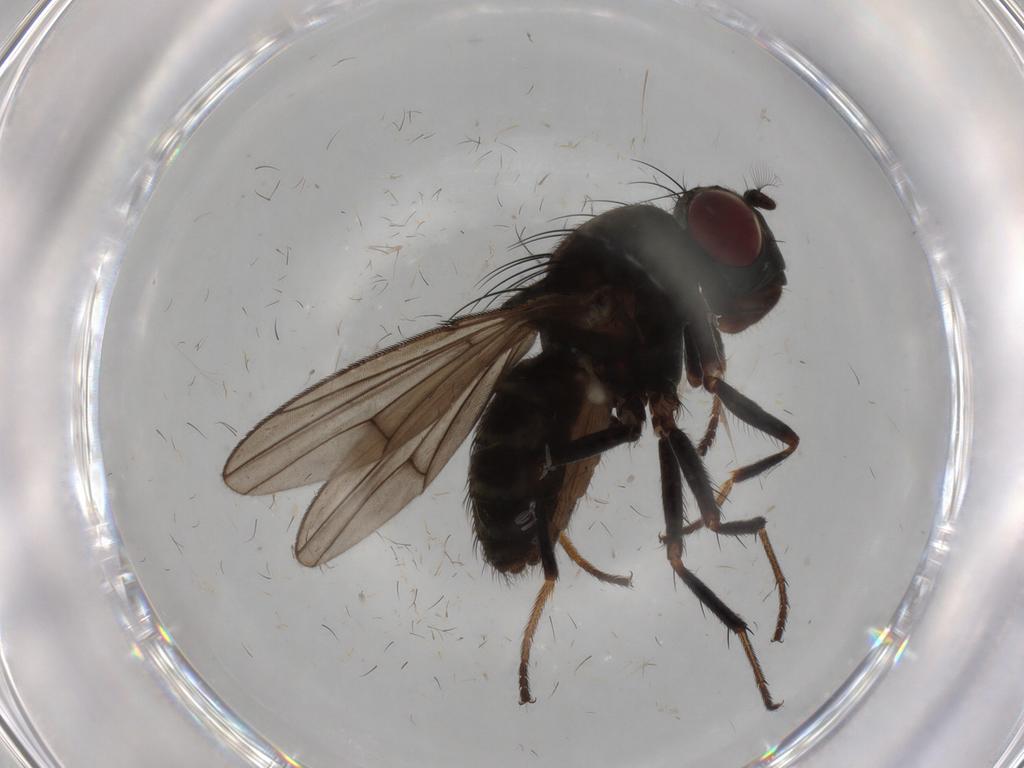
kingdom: Animalia
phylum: Arthropoda
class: Insecta
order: Diptera
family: Ephydridae
